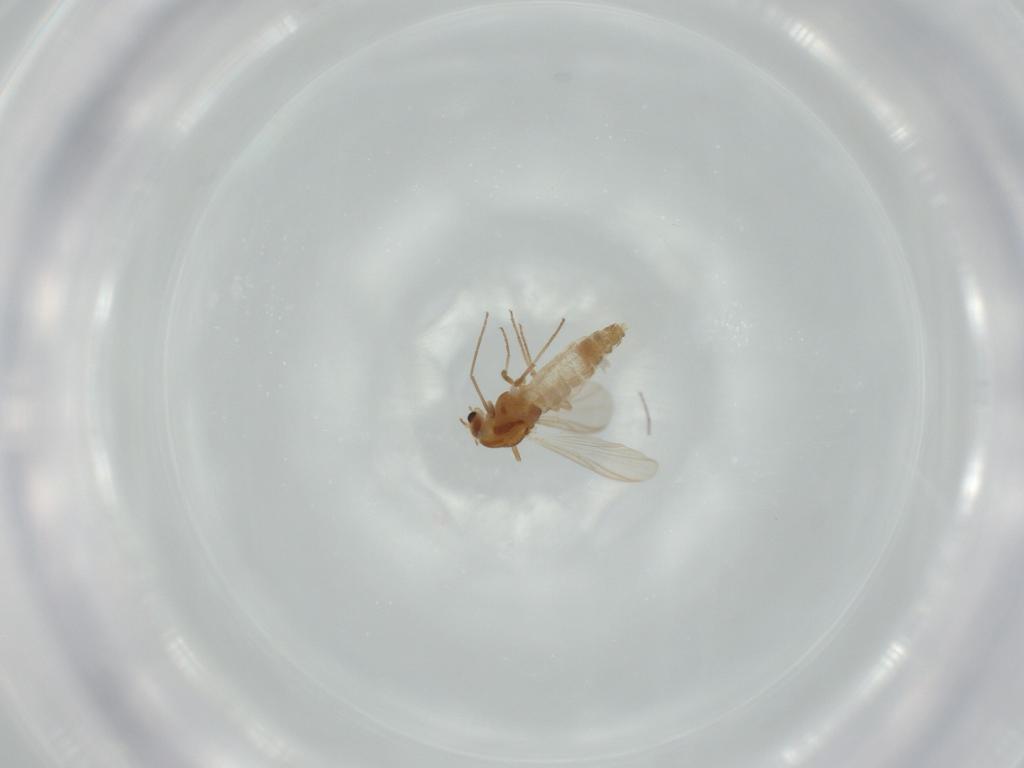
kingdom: Animalia
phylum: Arthropoda
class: Insecta
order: Diptera
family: Chironomidae
